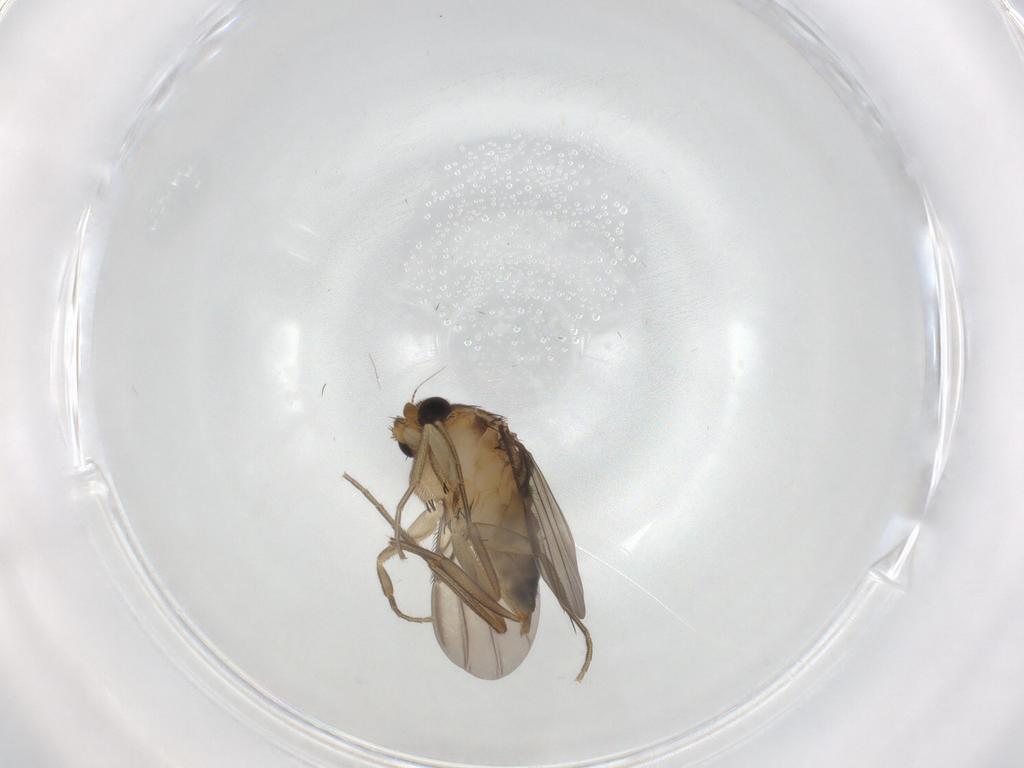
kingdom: Animalia
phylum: Arthropoda
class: Insecta
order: Diptera
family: Phoridae
